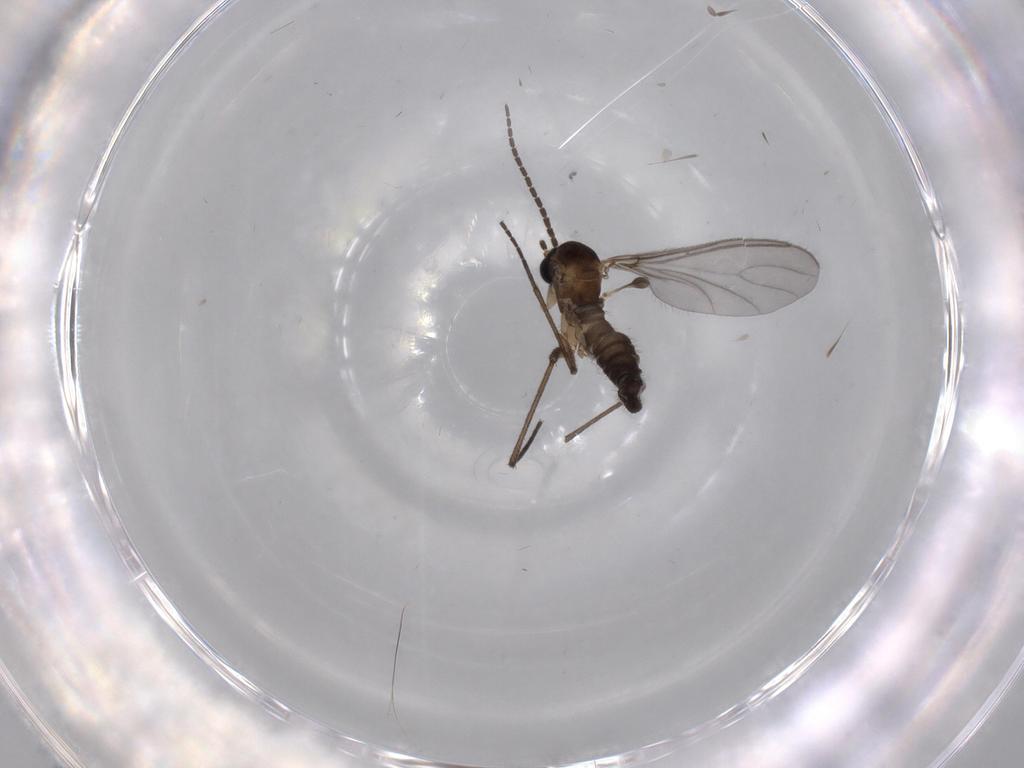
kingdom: Animalia
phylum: Arthropoda
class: Insecta
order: Diptera
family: Sciaridae
